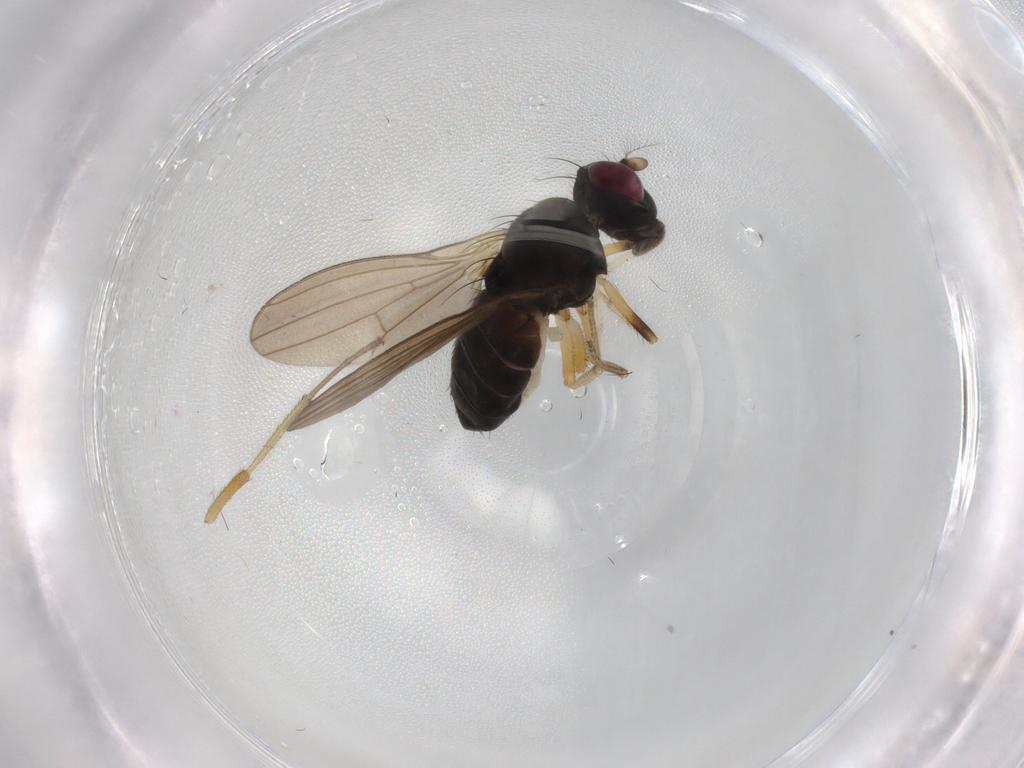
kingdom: Animalia
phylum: Arthropoda
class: Insecta
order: Diptera
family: Lauxaniidae
